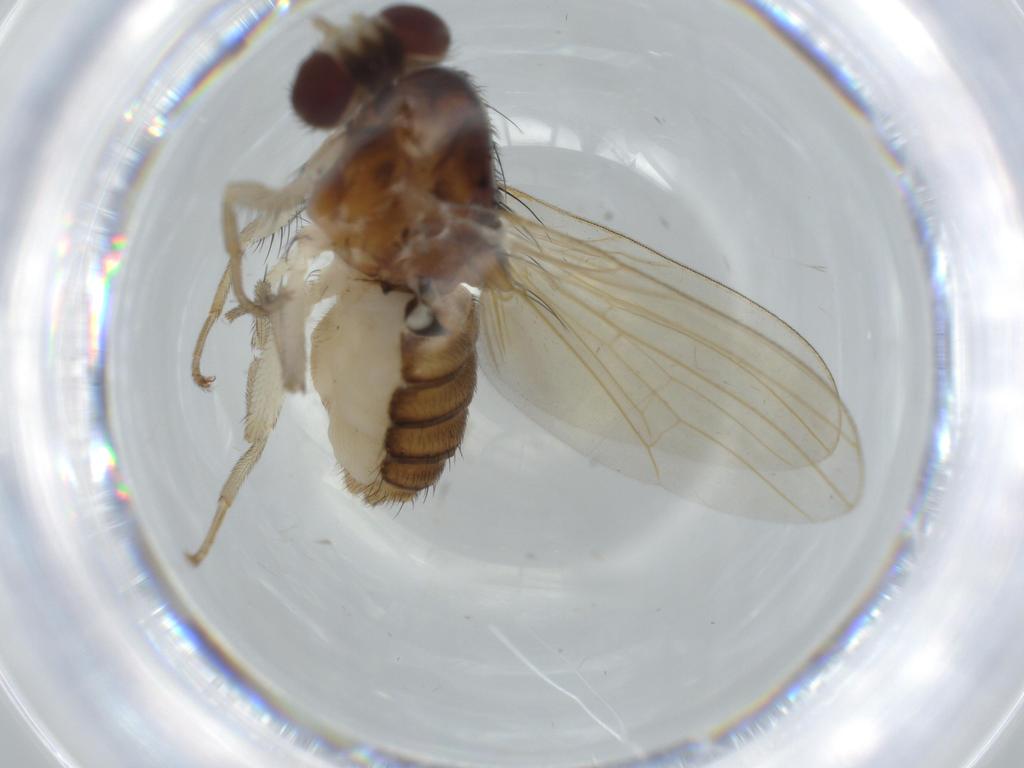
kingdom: Animalia
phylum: Arthropoda
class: Insecta
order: Diptera
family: Lauxaniidae
